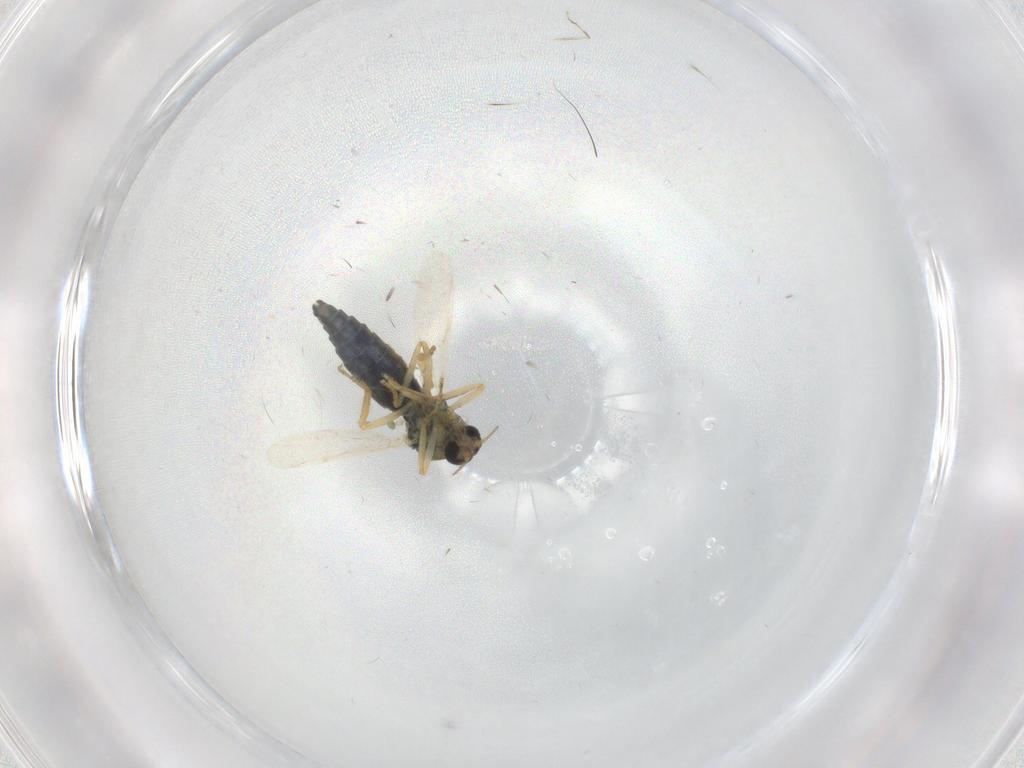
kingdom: Animalia
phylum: Arthropoda
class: Insecta
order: Diptera
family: Ceratopogonidae
